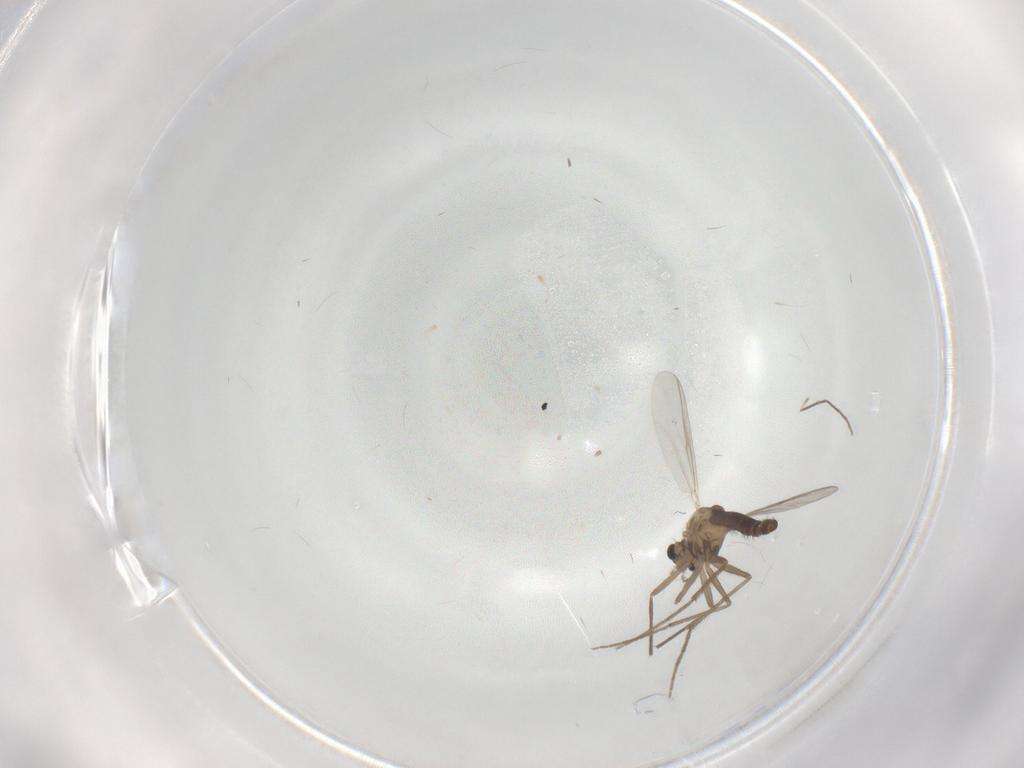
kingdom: Animalia
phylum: Arthropoda
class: Insecta
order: Diptera
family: Chironomidae
